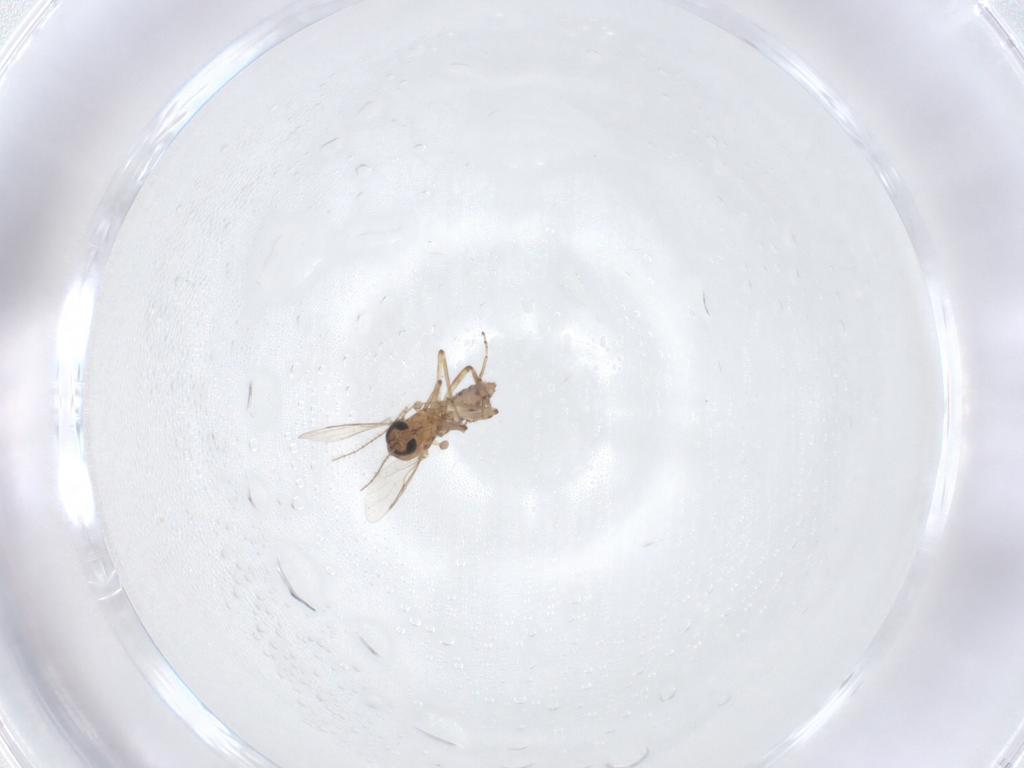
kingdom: Animalia
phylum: Arthropoda
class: Insecta
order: Diptera
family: Ceratopogonidae
